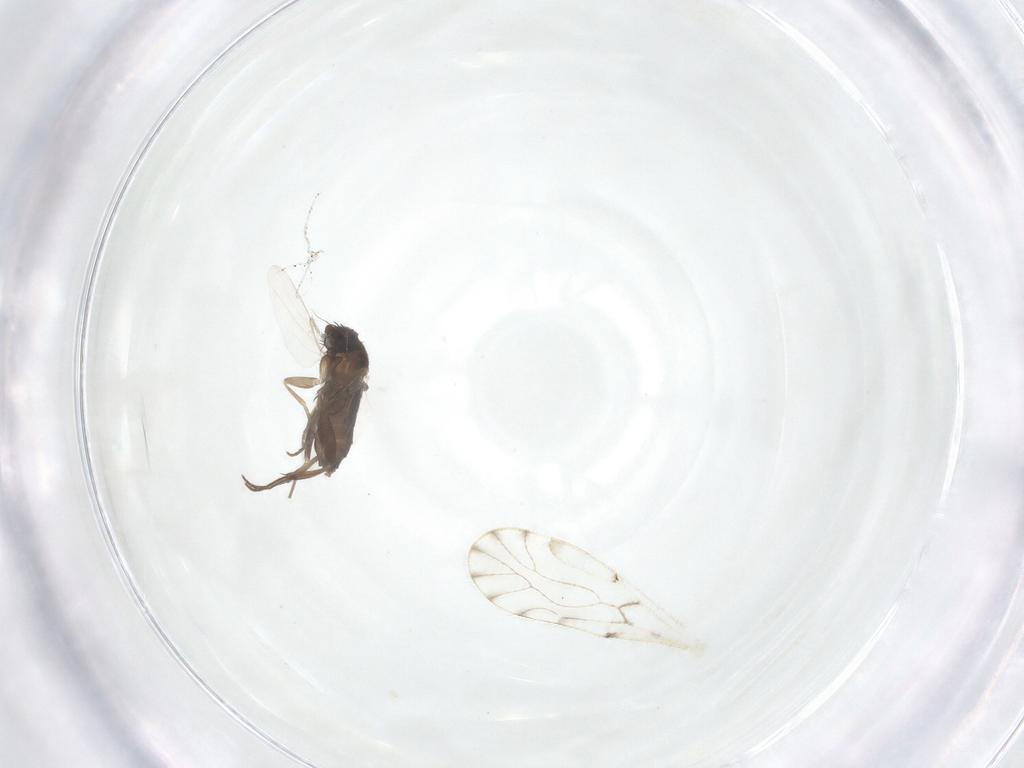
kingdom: Animalia
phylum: Arthropoda
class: Insecta
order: Diptera
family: Phoridae
